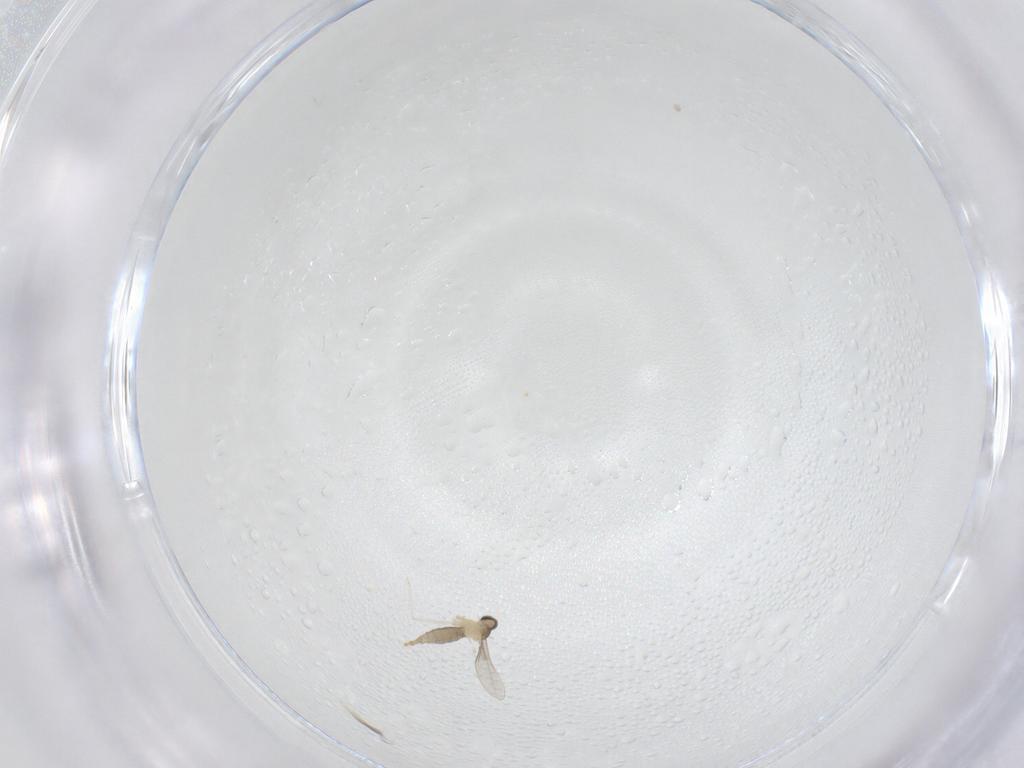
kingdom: Animalia
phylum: Arthropoda
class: Insecta
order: Diptera
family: Cecidomyiidae
